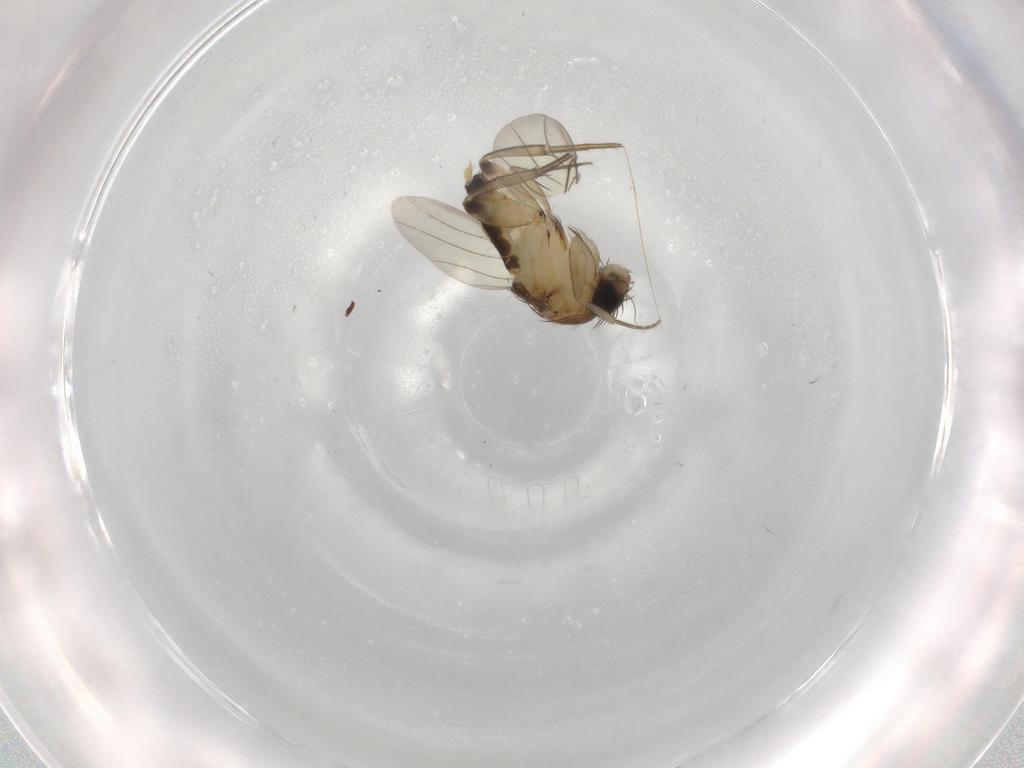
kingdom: Animalia
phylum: Arthropoda
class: Insecta
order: Diptera
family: Phoridae
